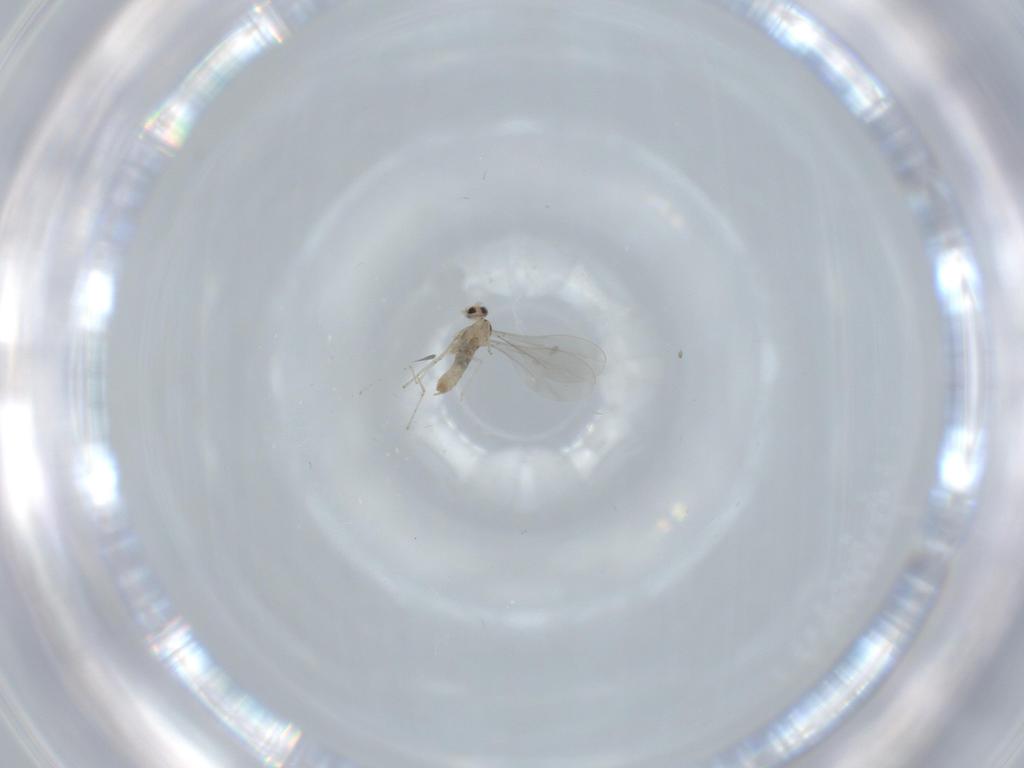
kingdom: Animalia
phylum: Arthropoda
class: Insecta
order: Diptera
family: Cecidomyiidae
